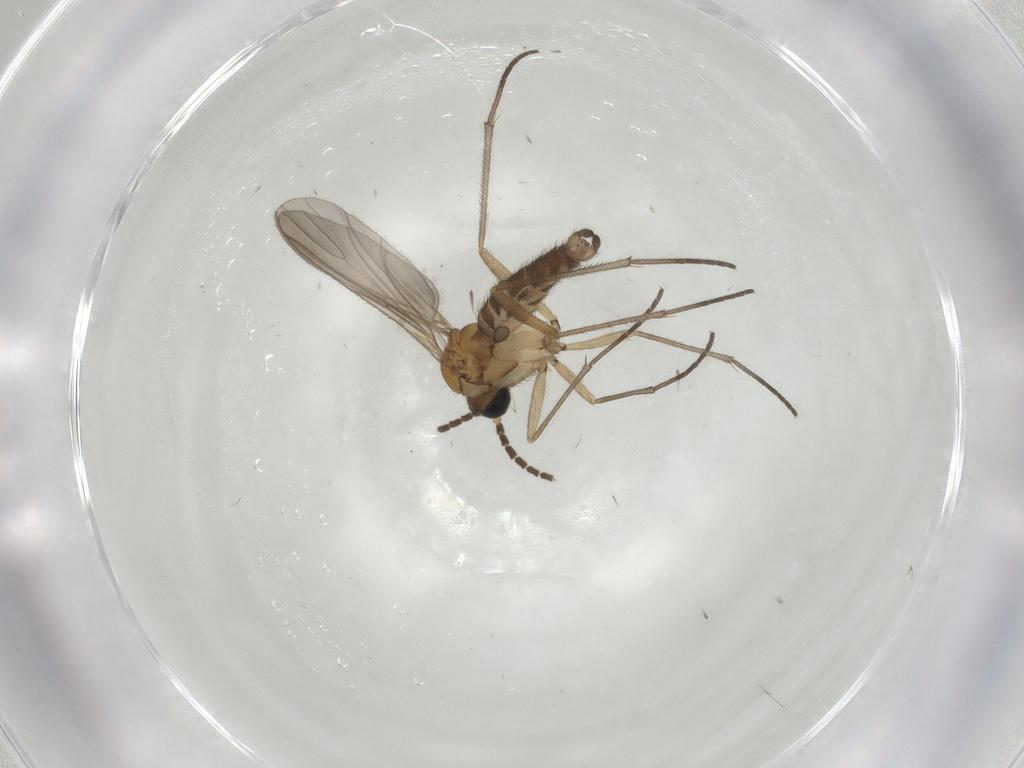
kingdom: Animalia
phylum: Arthropoda
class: Insecta
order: Diptera
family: Sciaridae
